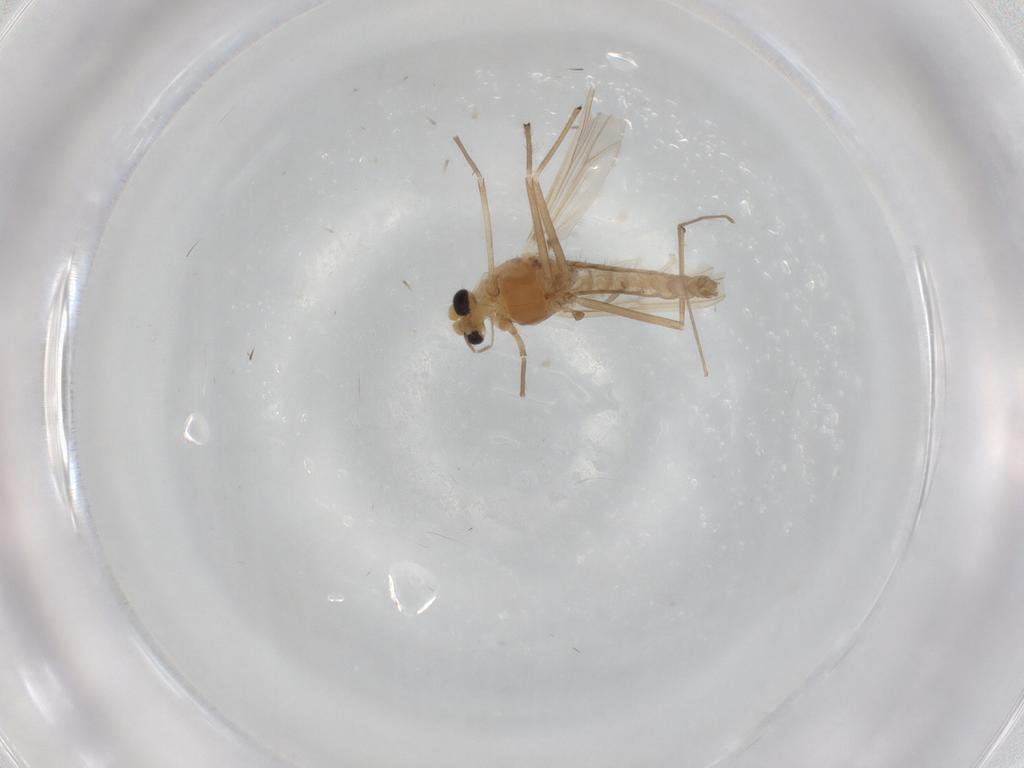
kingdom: Animalia
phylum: Arthropoda
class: Insecta
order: Diptera
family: Chironomidae
